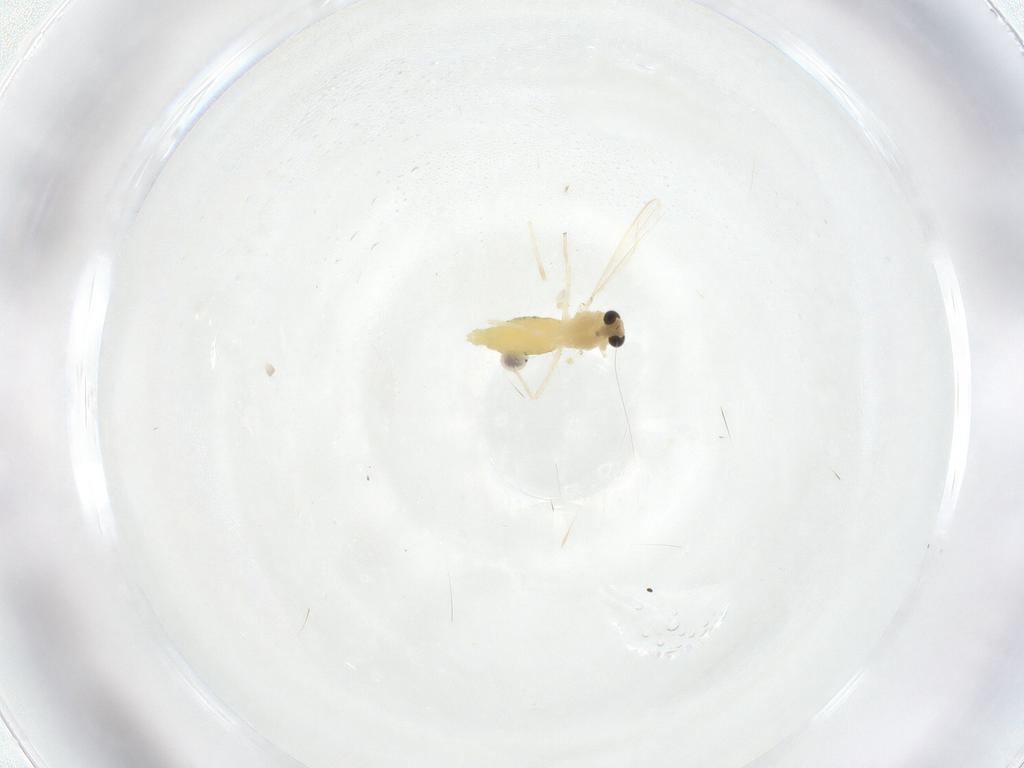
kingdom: Animalia
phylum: Arthropoda
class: Insecta
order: Diptera
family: Chironomidae
